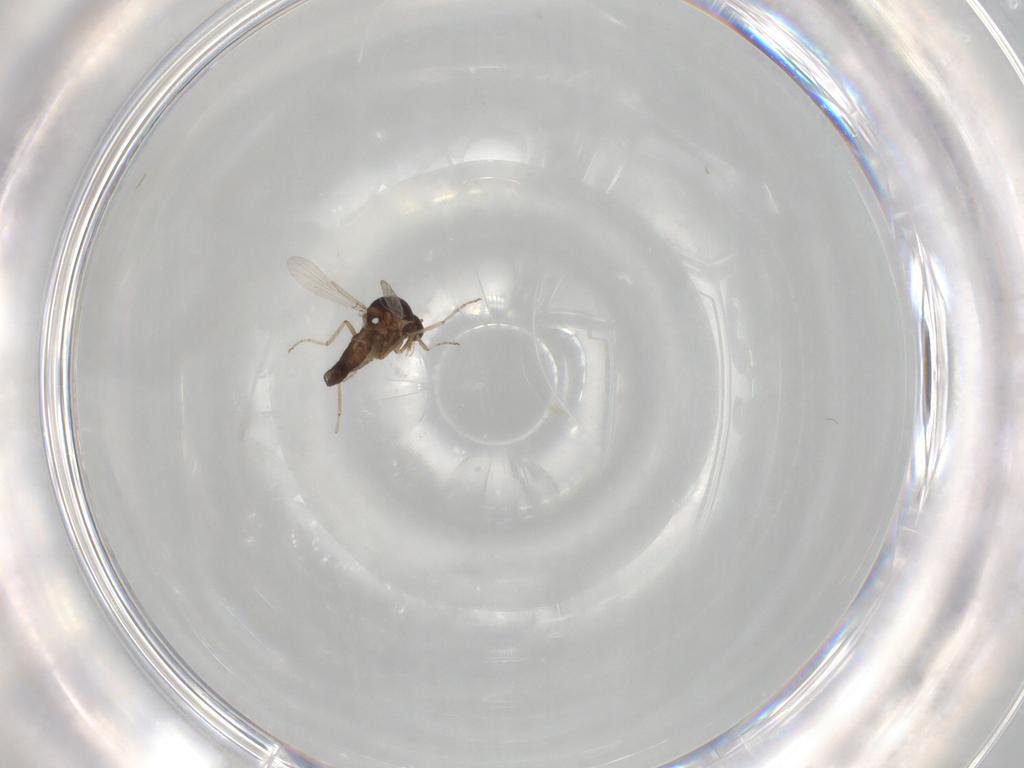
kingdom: Animalia
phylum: Arthropoda
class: Insecta
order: Diptera
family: Ceratopogonidae
